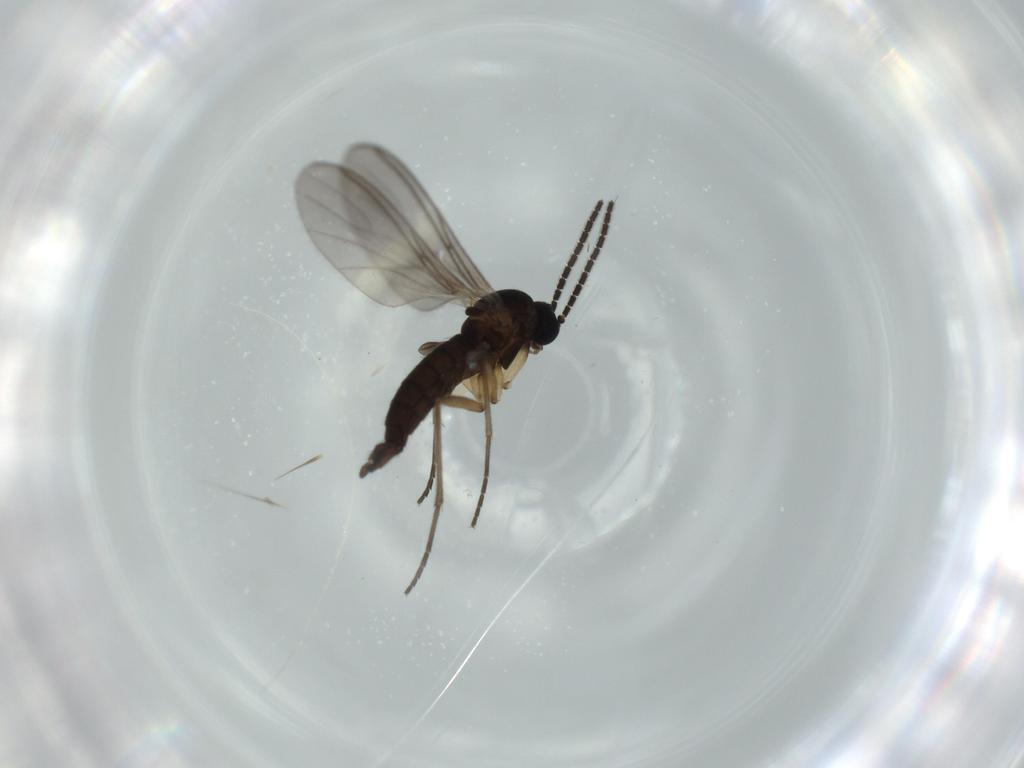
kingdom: Animalia
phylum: Arthropoda
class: Insecta
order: Diptera
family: Sciaridae
